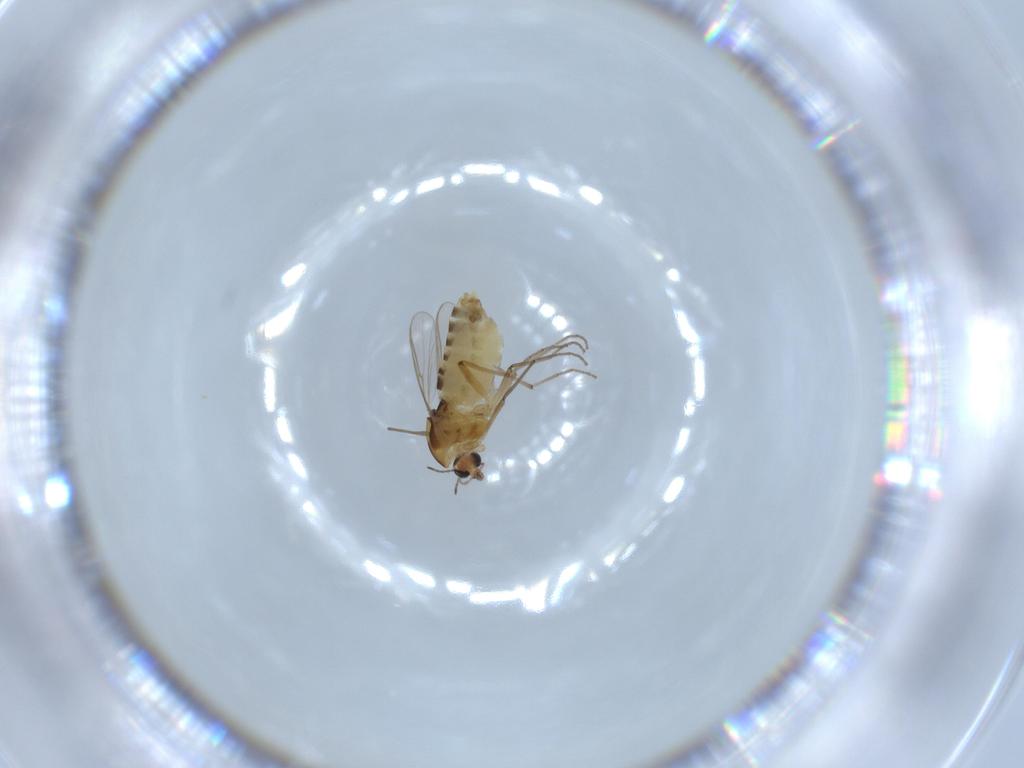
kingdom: Animalia
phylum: Arthropoda
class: Insecta
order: Diptera
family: Chironomidae
